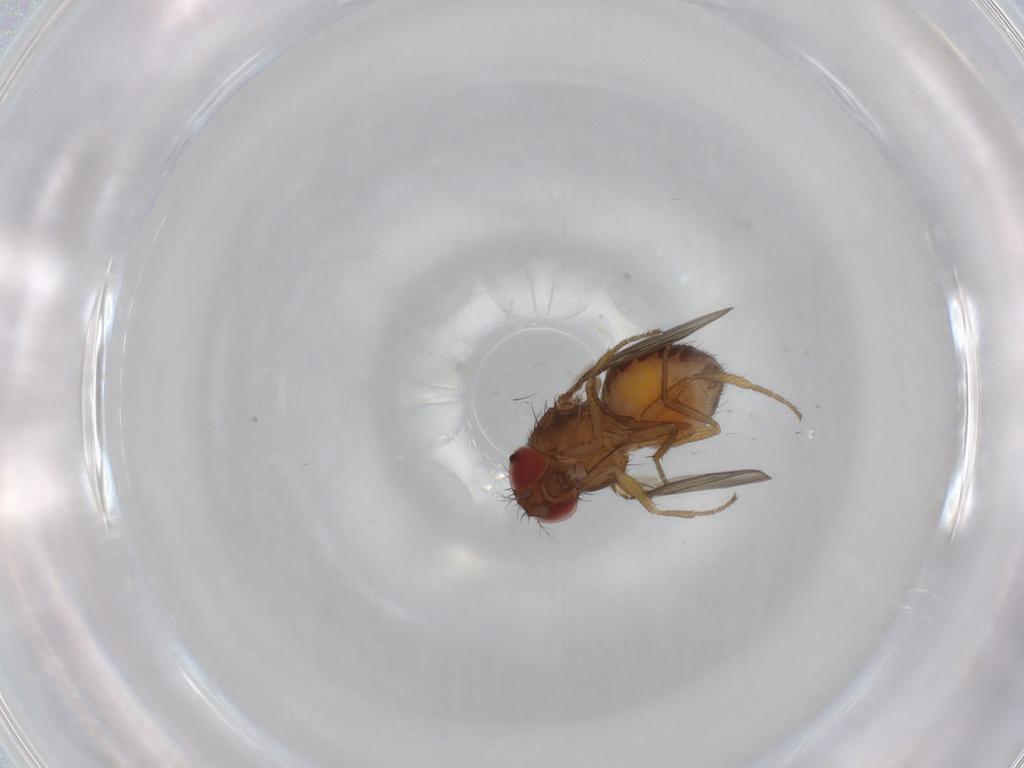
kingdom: Animalia
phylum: Arthropoda
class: Insecta
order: Diptera
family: Drosophilidae
